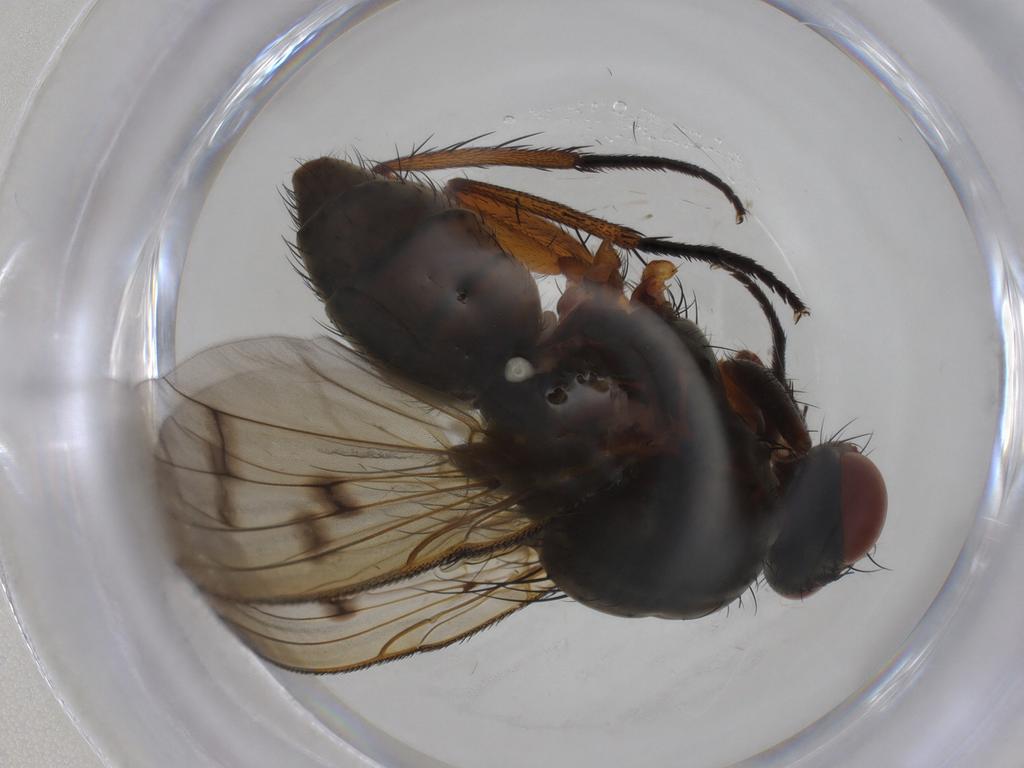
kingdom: Animalia
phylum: Arthropoda
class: Insecta
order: Diptera
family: Anthomyiidae
